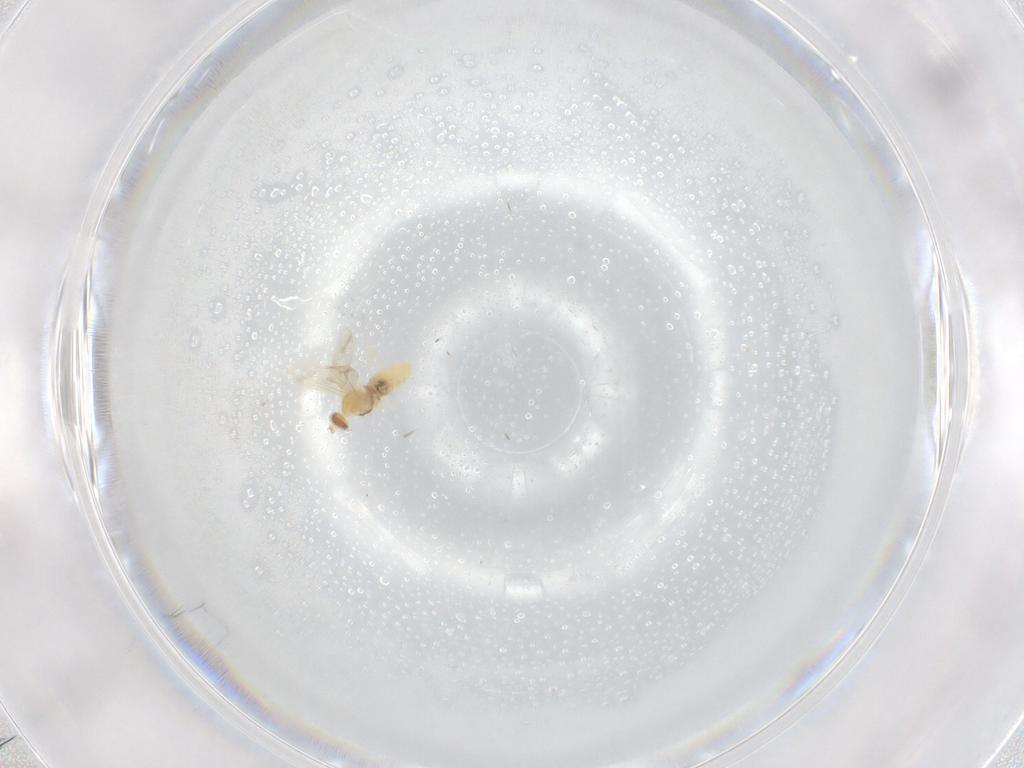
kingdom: Animalia
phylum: Arthropoda
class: Insecta
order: Diptera
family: Cecidomyiidae
